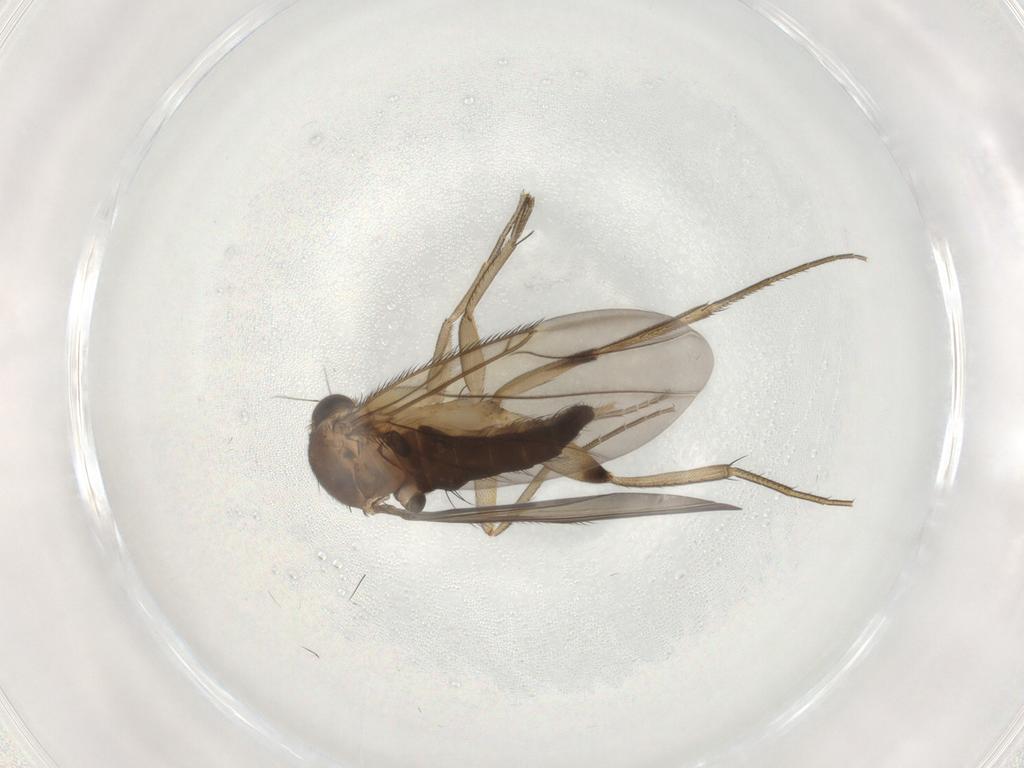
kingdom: Animalia
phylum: Arthropoda
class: Insecta
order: Diptera
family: Phoridae
